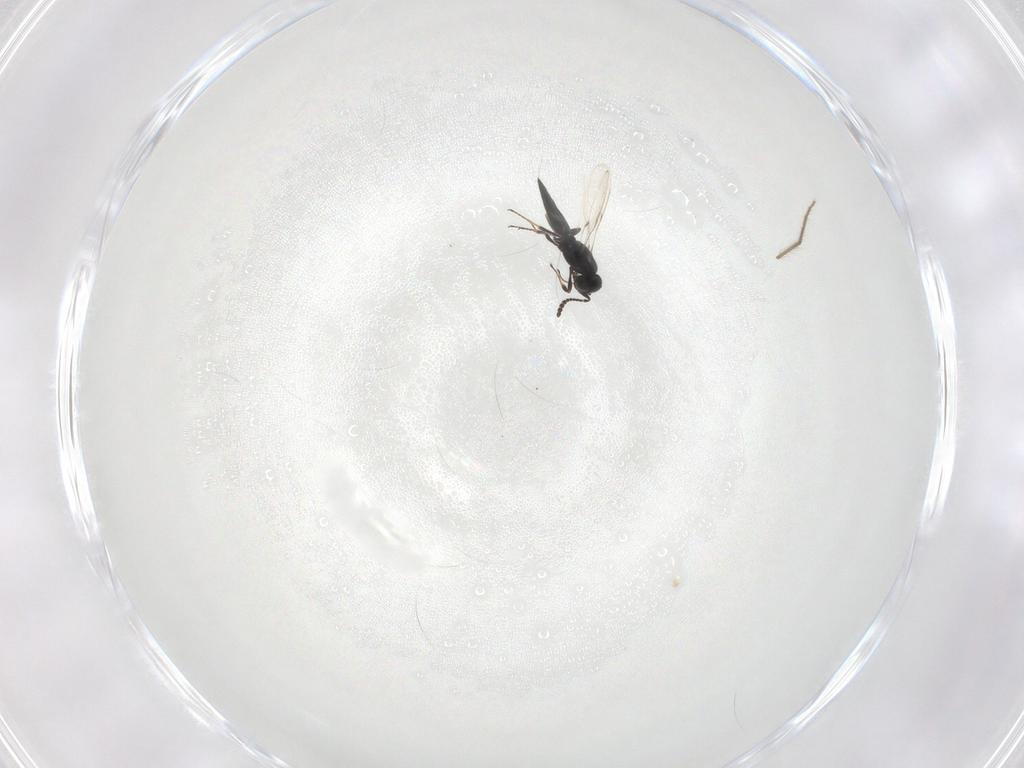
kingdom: Animalia
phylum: Arthropoda
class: Insecta
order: Hymenoptera
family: Scelionidae
